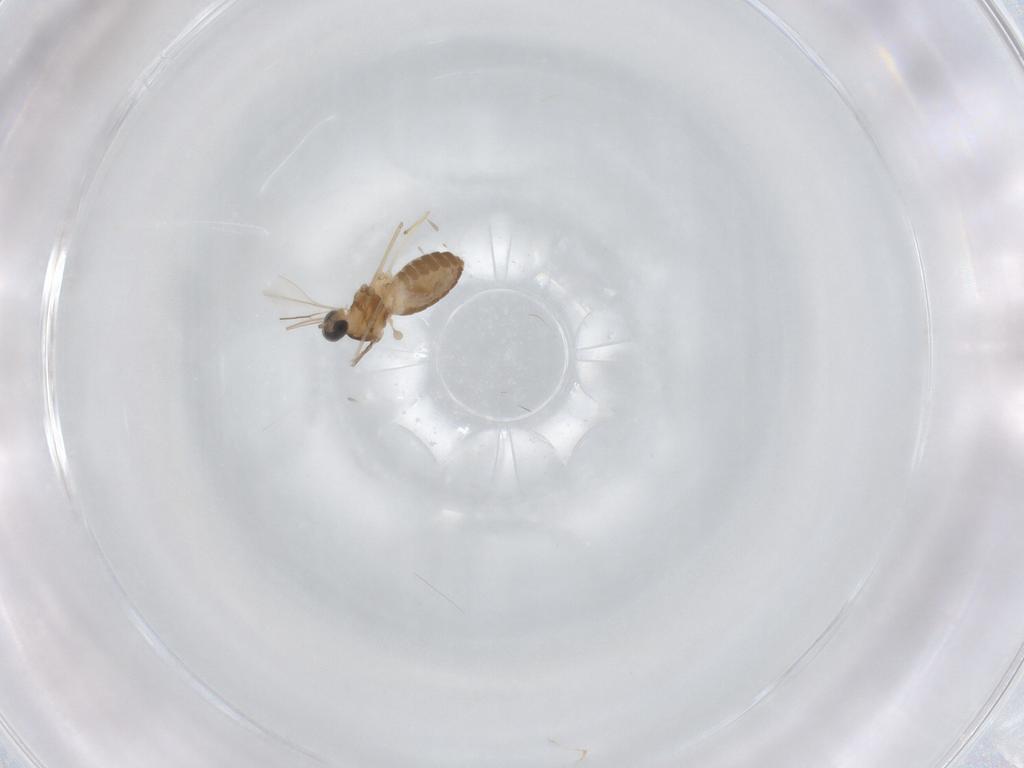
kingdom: Animalia
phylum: Arthropoda
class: Insecta
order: Diptera
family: Cecidomyiidae
